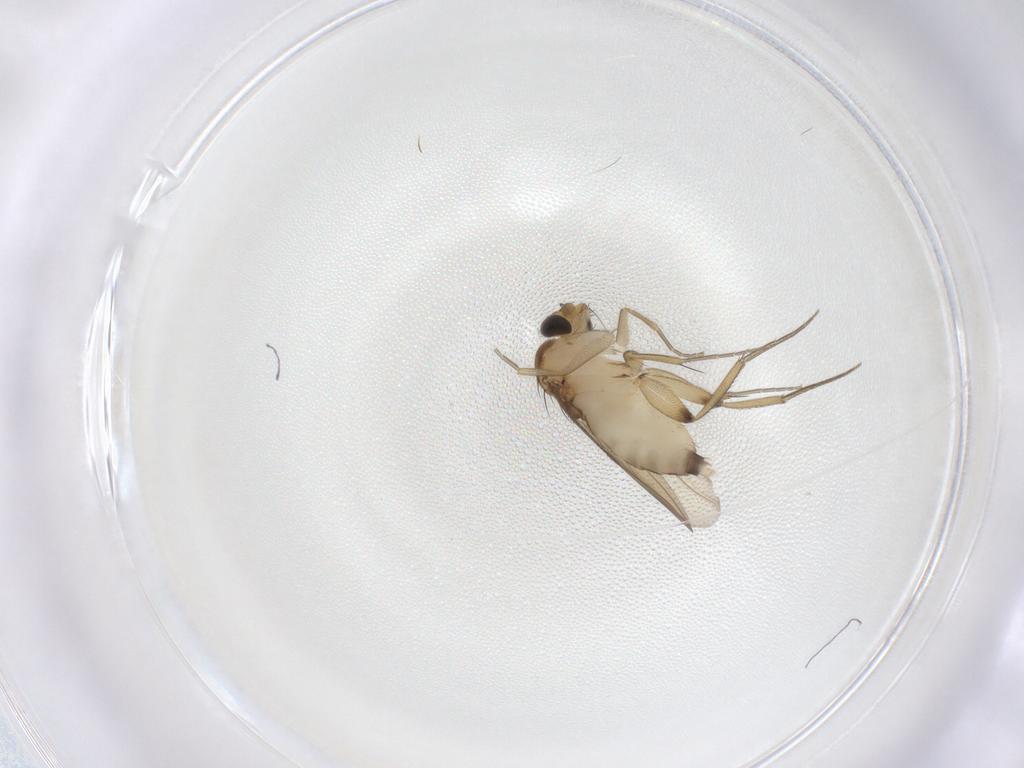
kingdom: Animalia
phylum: Arthropoda
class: Insecta
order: Diptera
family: Phoridae
